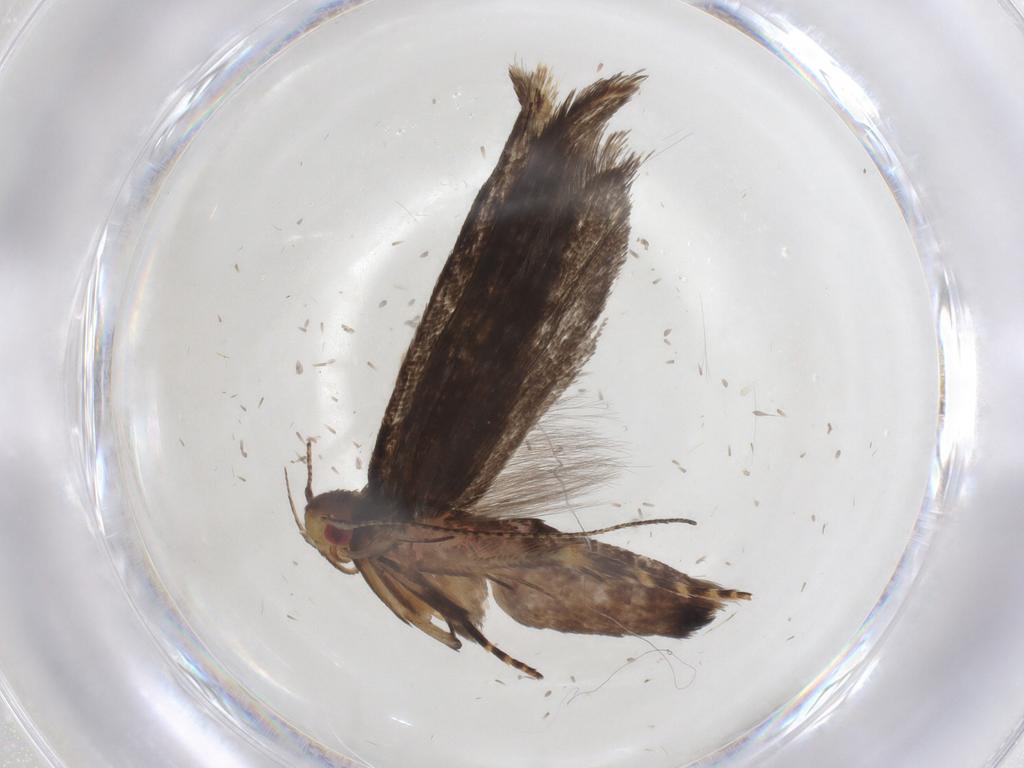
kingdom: Animalia
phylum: Arthropoda
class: Insecta
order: Lepidoptera
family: Gelechiidae
